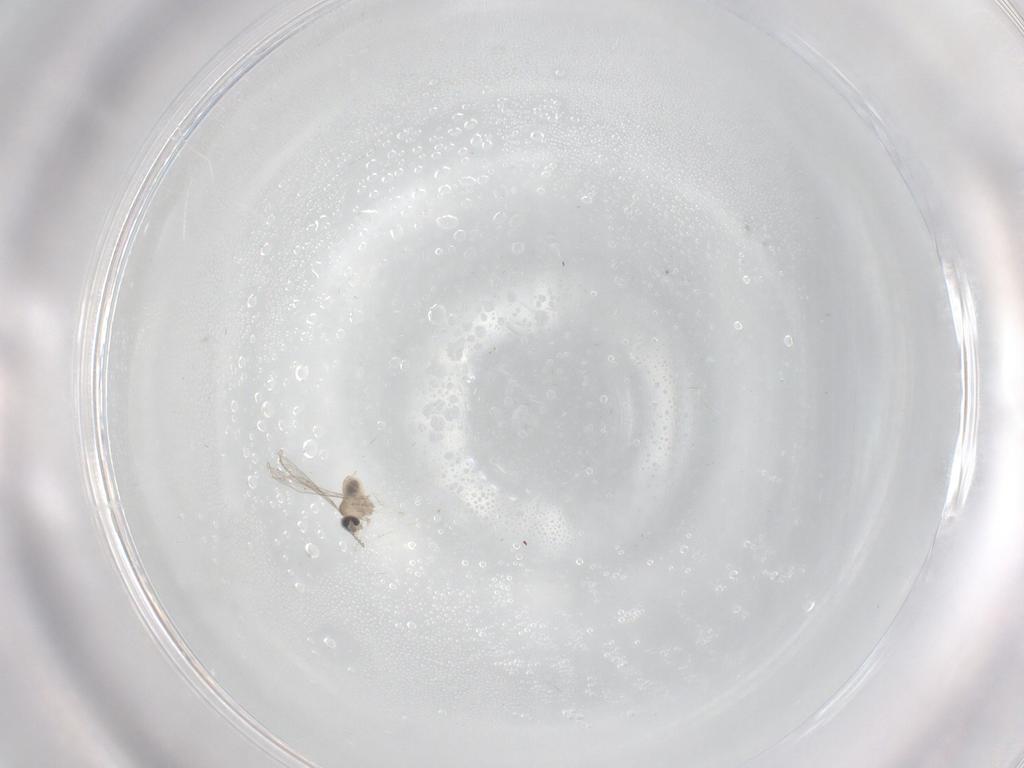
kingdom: Animalia
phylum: Arthropoda
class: Insecta
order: Diptera
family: Cecidomyiidae
